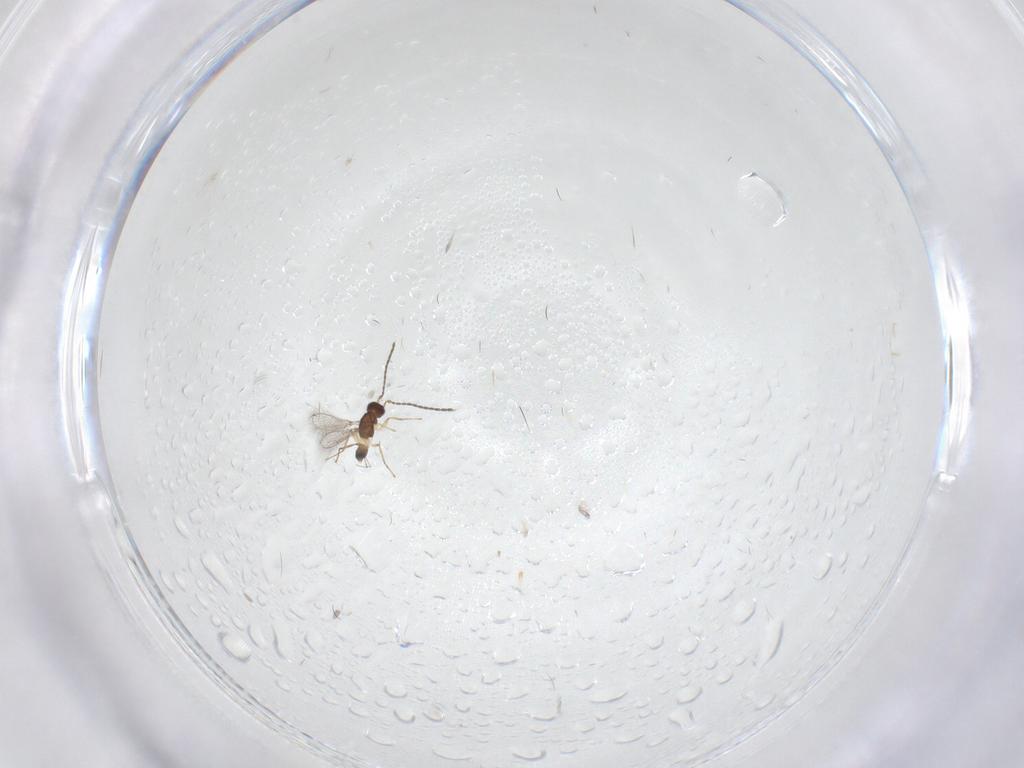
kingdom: Animalia
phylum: Arthropoda
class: Insecta
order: Hymenoptera
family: Mymaridae
